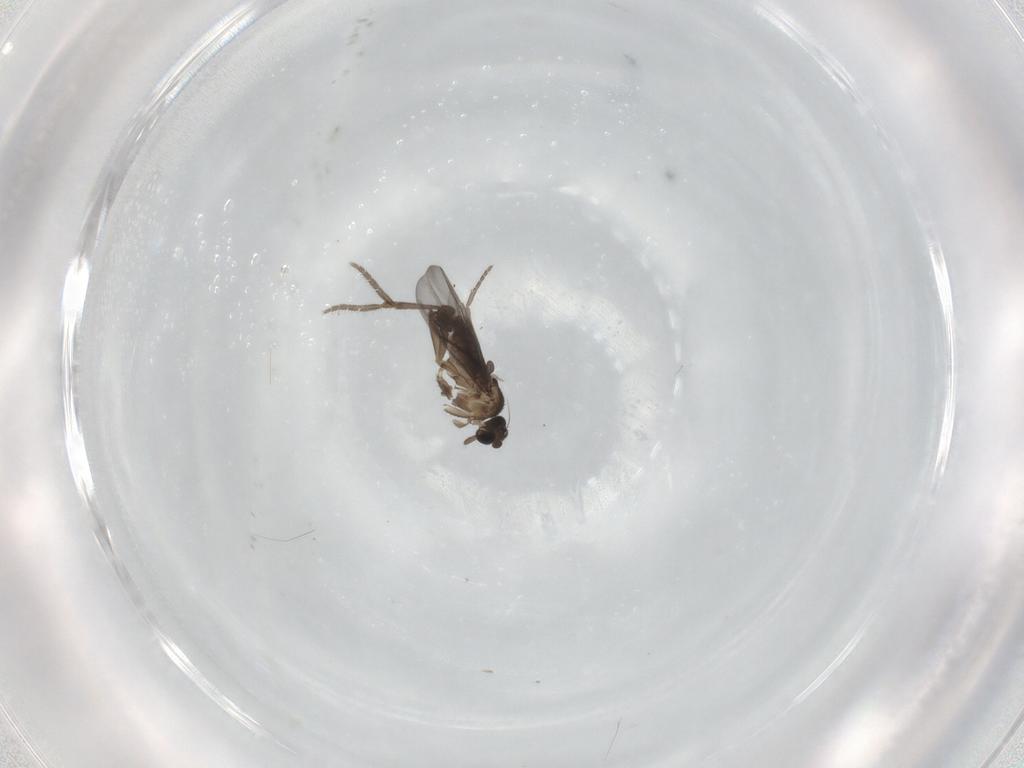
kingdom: Animalia
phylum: Arthropoda
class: Insecta
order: Diptera
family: Phoridae
